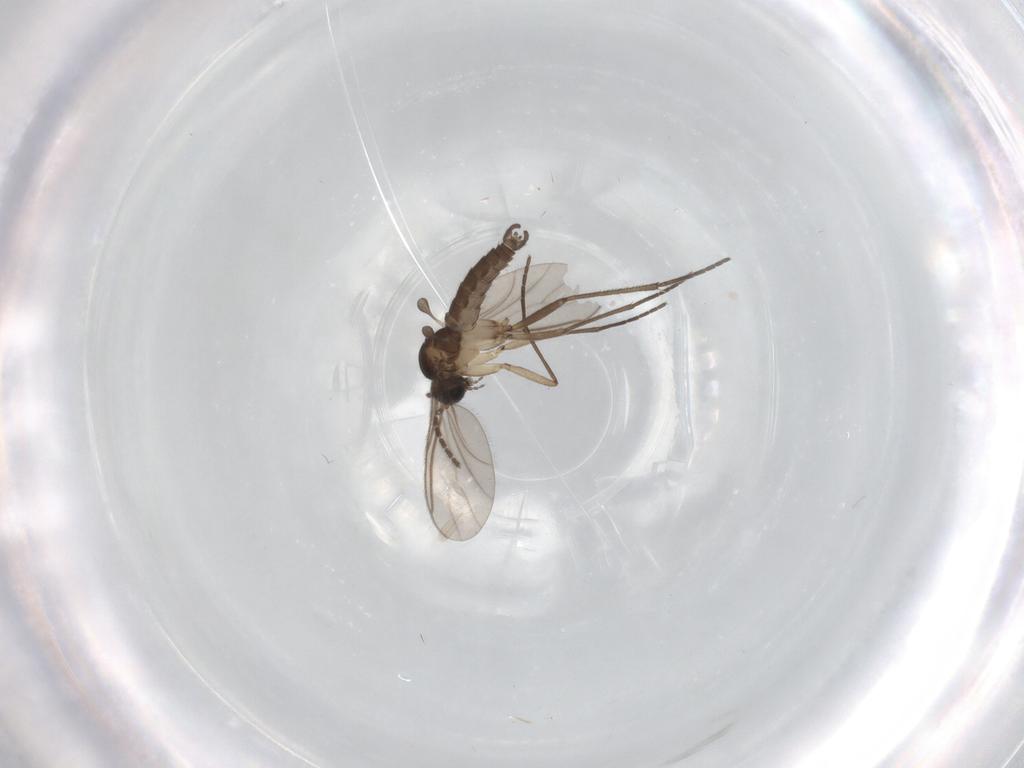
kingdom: Animalia
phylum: Arthropoda
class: Insecta
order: Diptera
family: Sciaridae
